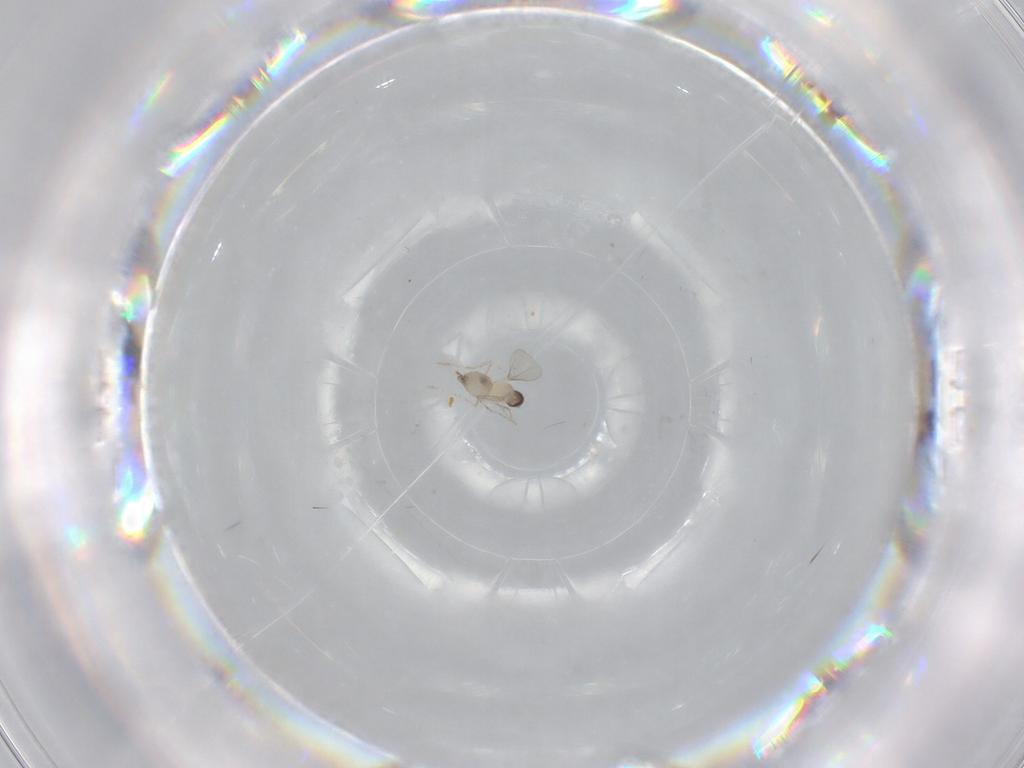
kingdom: Animalia
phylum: Arthropoda
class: Insecta
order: Diptera
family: Cecidomyiidae
